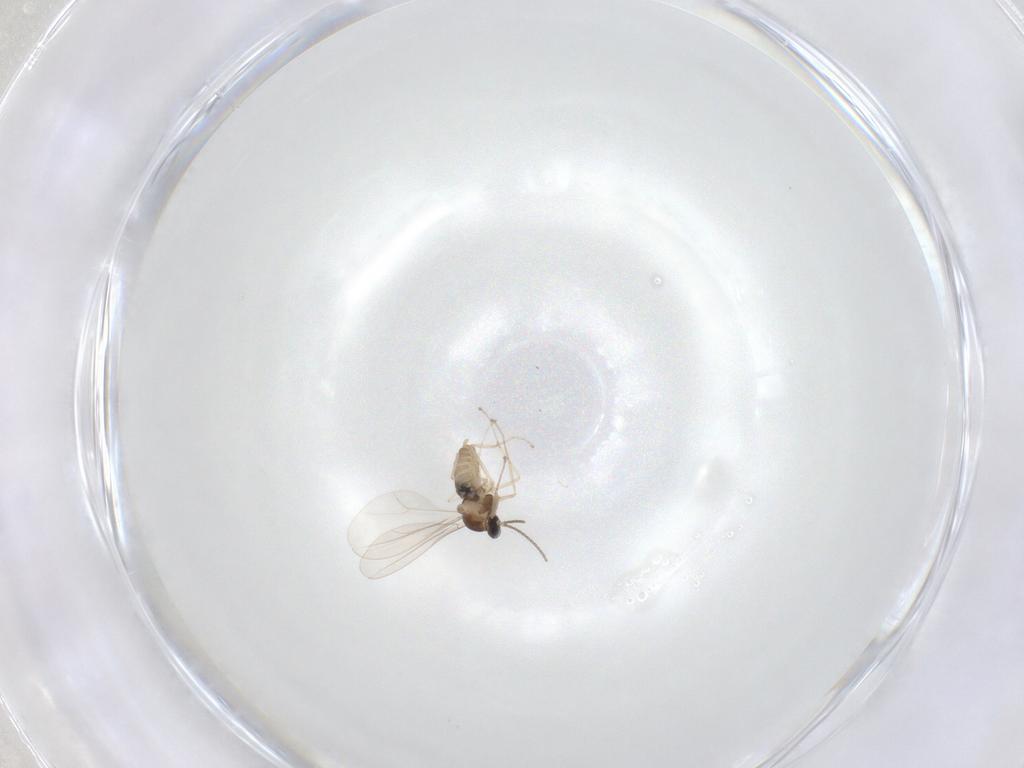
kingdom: Animalia
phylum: Arthropoda
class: Insecta
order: Diptera
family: Cecidomyiidae
